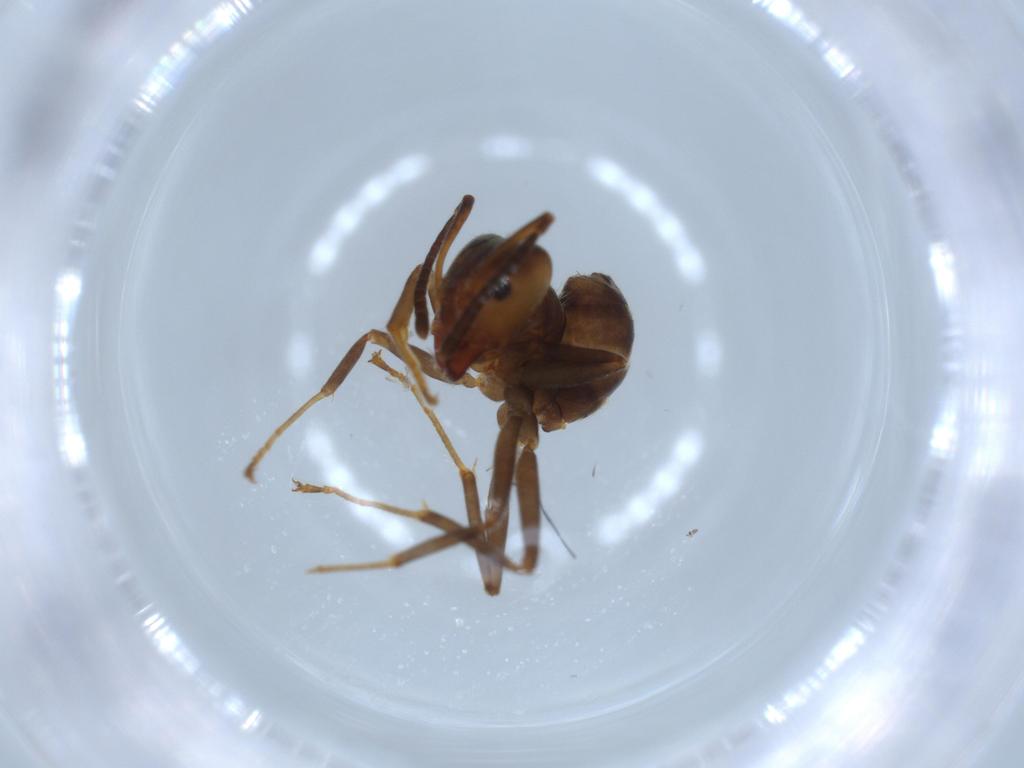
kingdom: Animalia
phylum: Arthropoda
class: Insecta
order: Hymenoptera
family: Formicidae
